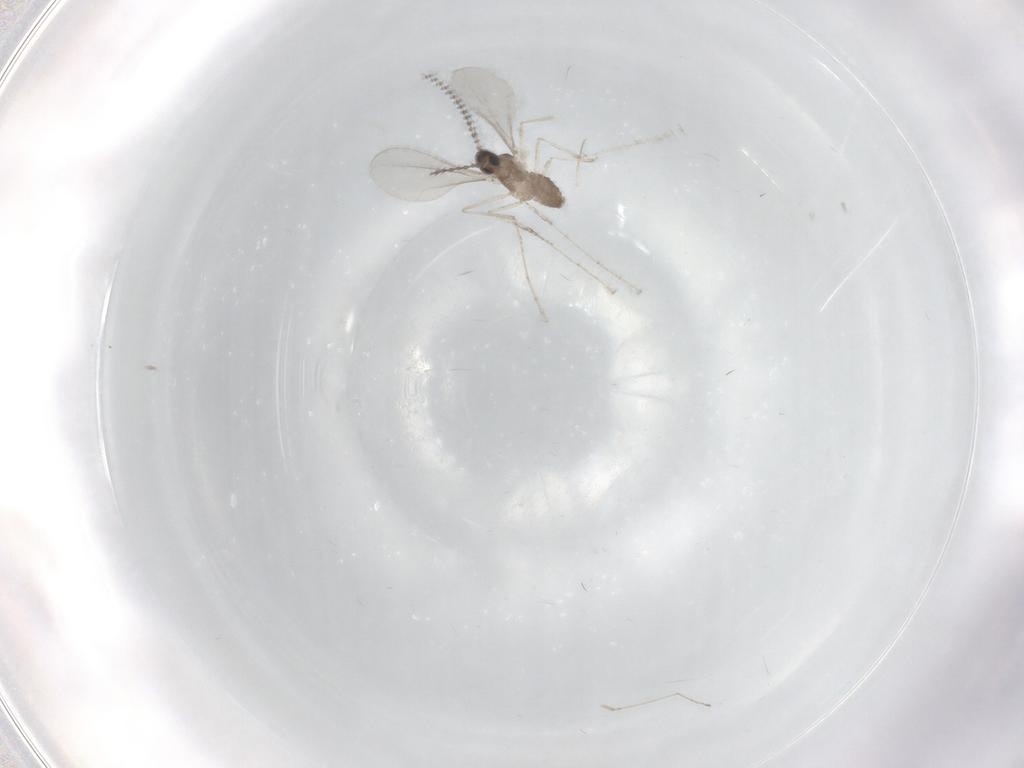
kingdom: Animalia
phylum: Arthropoda
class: Insecta
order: Diptera
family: Cecidomyiidae
